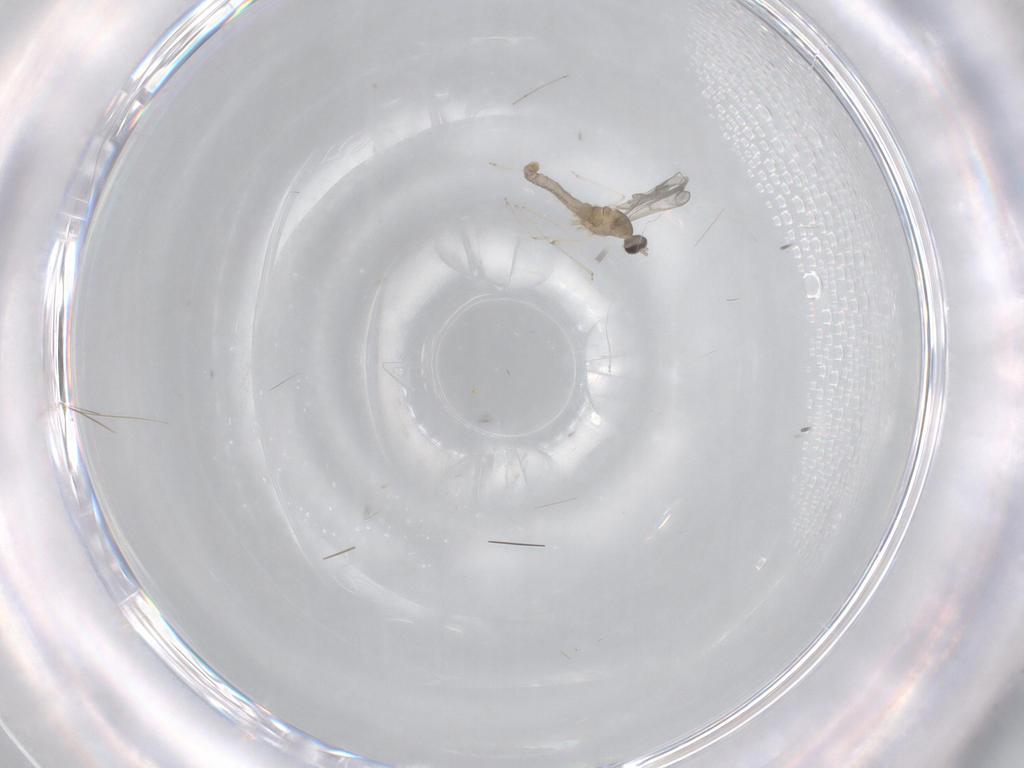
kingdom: Animalia
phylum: Arthropoda
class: Insecta
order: Diptera
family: Cecidomyiidae
